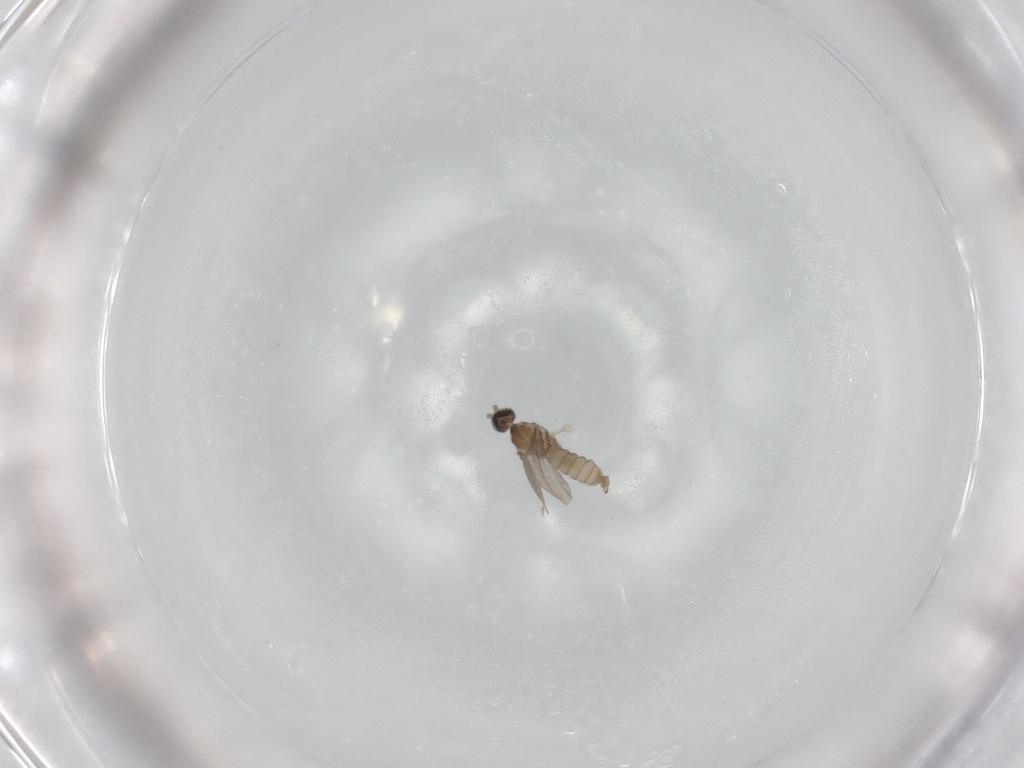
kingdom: Animalia
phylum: Arthropoda
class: Insecta
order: Diptera
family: Cecidomyiidae
